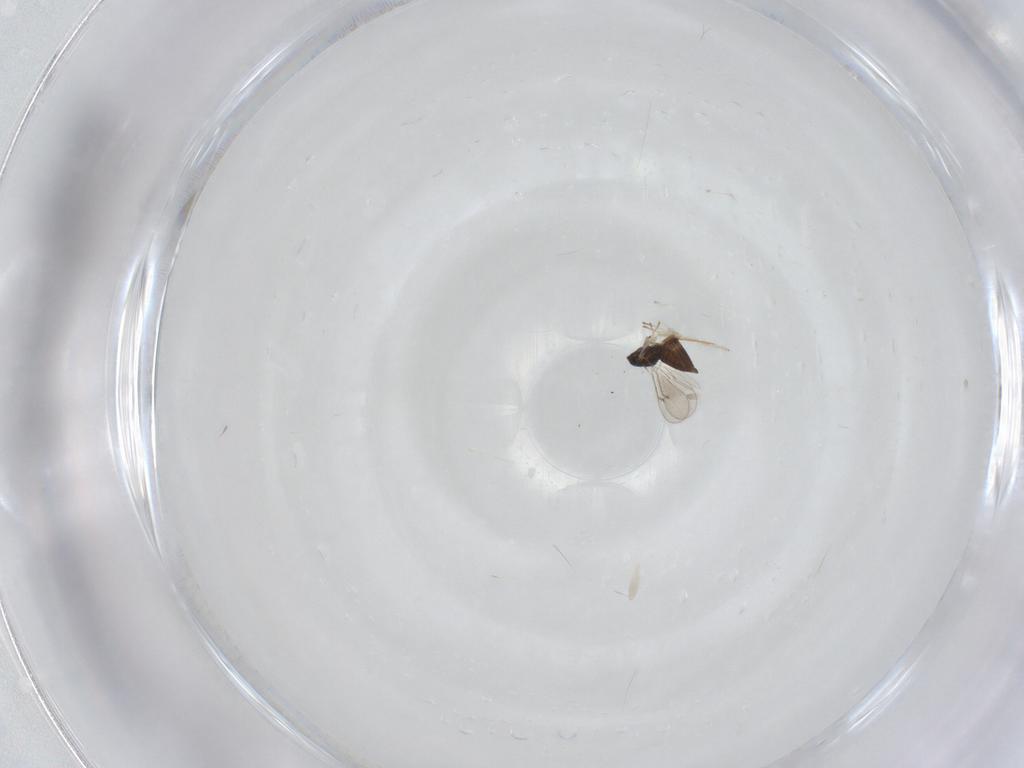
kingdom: Animalia
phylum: Arthropoda
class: Insecta
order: Hymenoptera
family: Eulophidae
